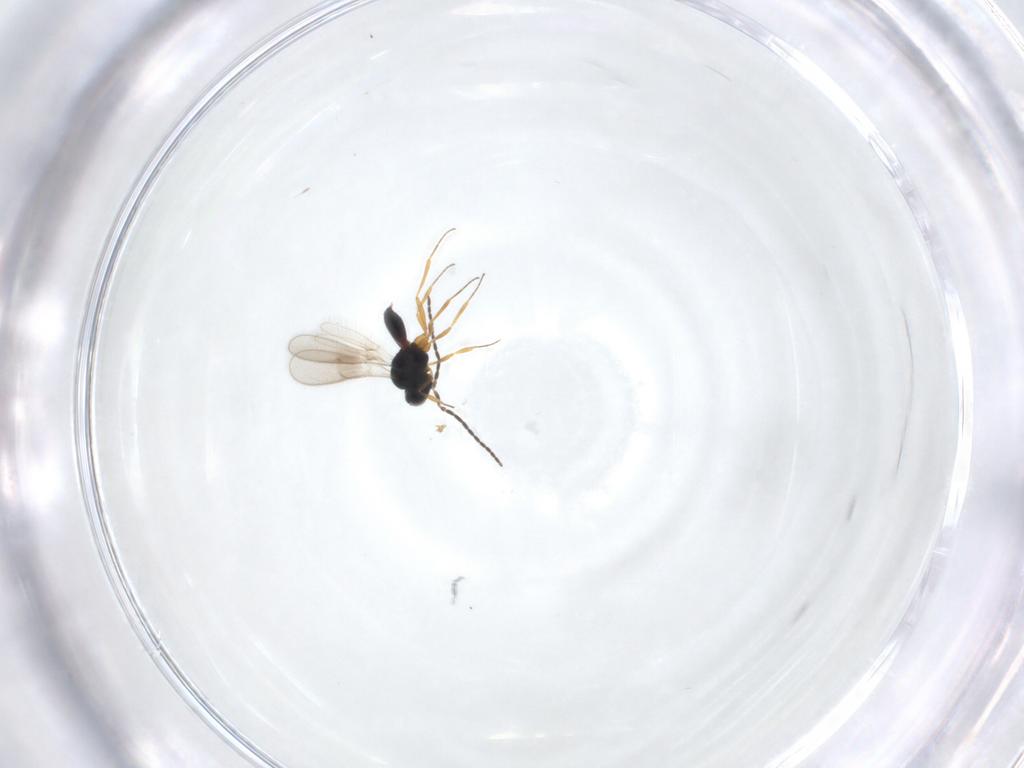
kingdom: Animalia
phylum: Arthropoda
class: Insecta
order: Hymenoptera
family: Scelionidae
